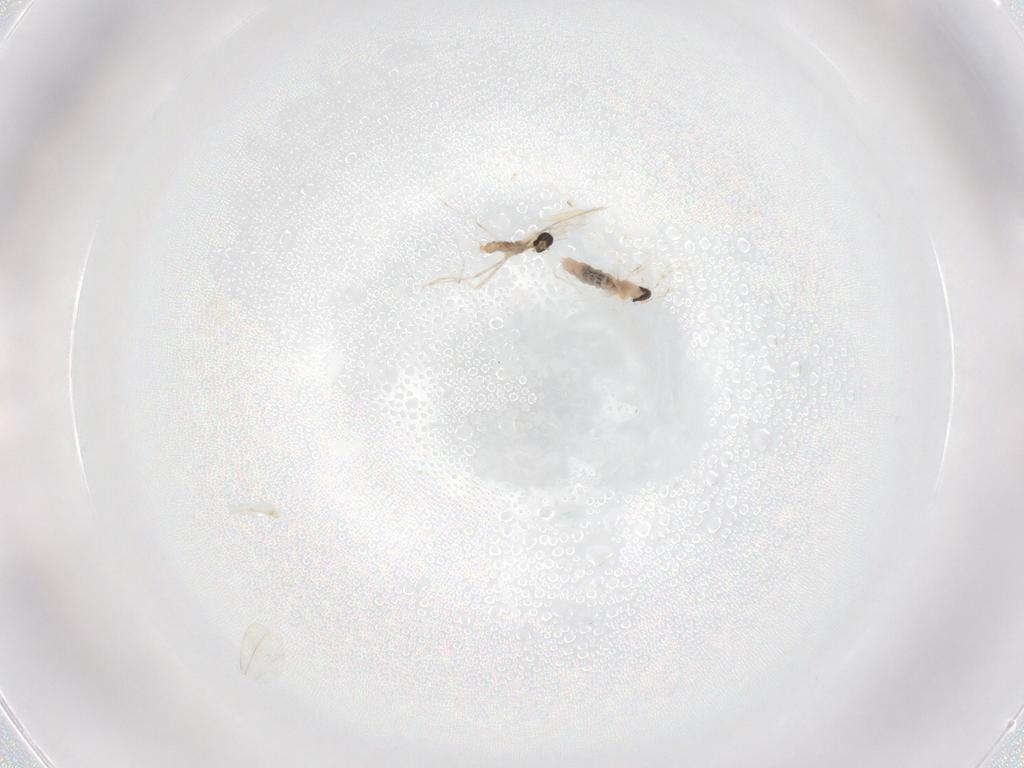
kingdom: Animalia
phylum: Arthropoda
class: Insecta
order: Diptera
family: Cecidomyiidae
